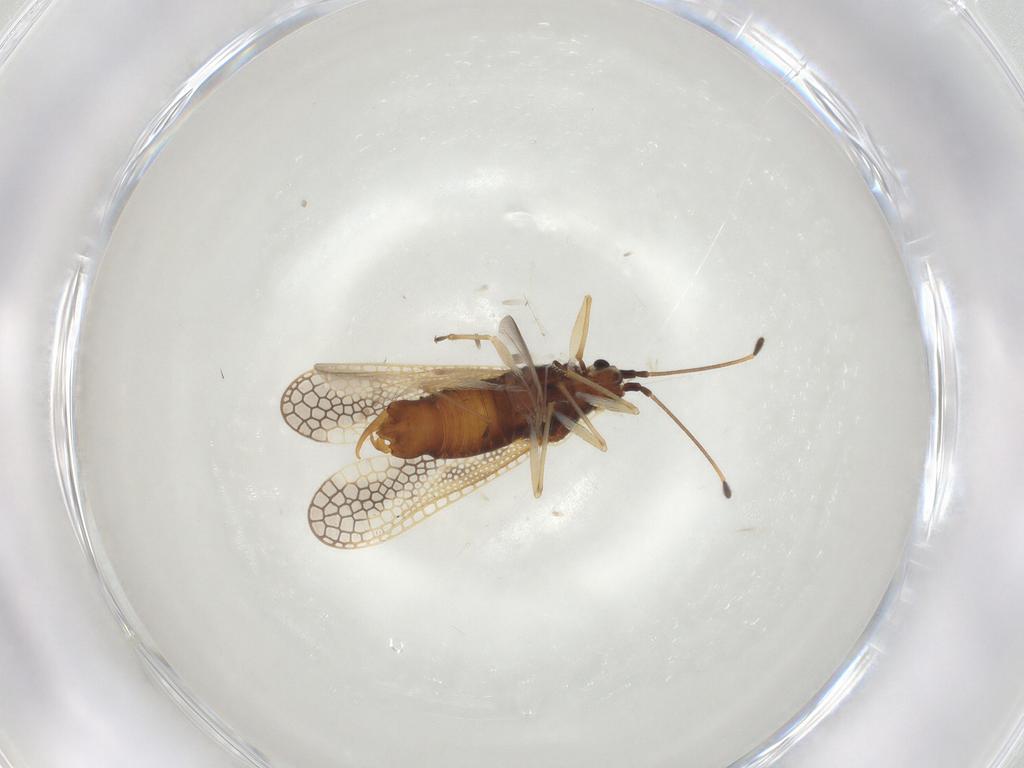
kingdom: Animalia
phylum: Arthropoda
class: Insecta
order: Hemiptera
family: Tingidae
